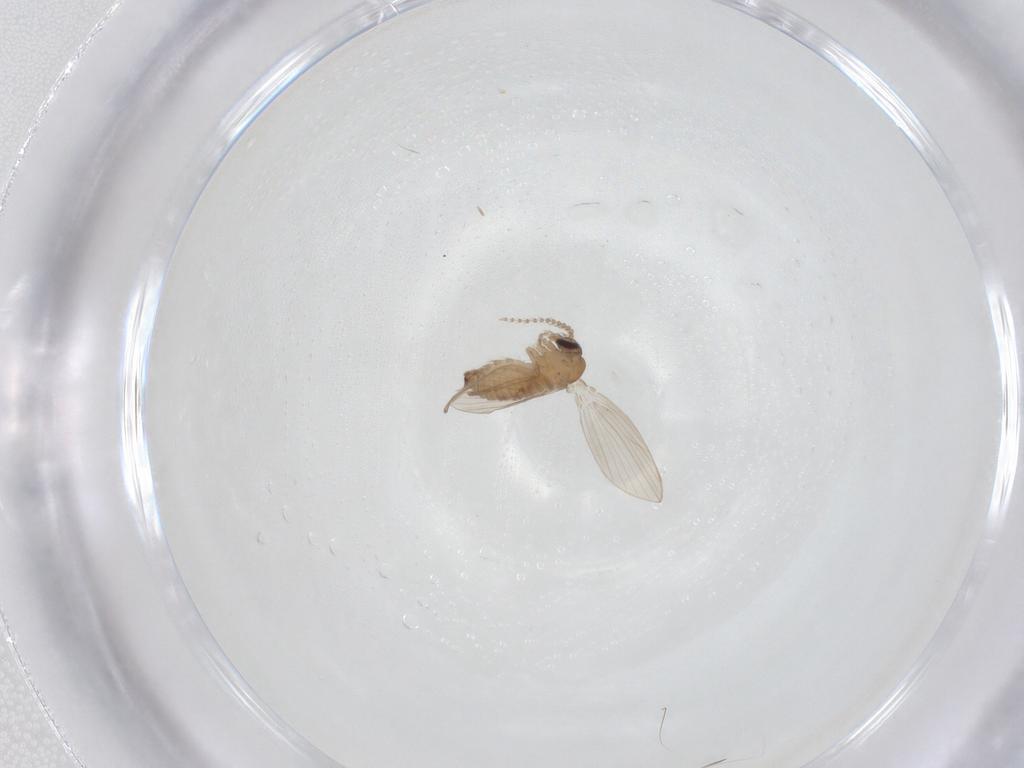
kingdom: Animalia
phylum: Arthropoda
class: Insecta
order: Diptera
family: Psychodidae
